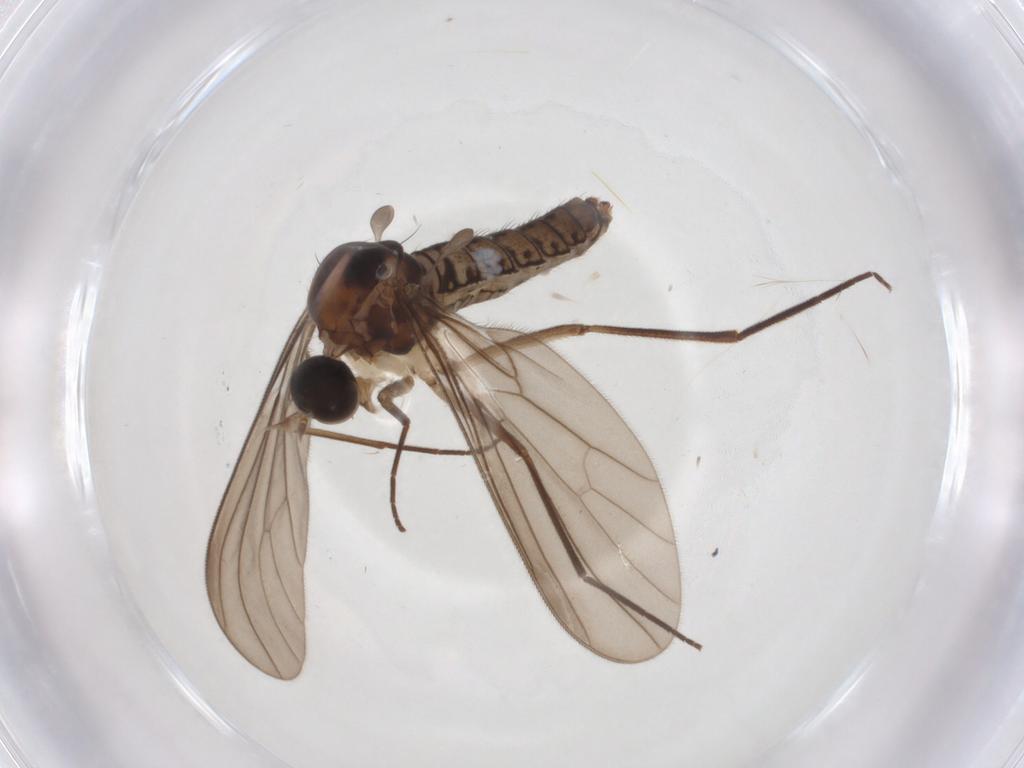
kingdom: Animalia
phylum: Arthropoda
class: Insecta
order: Diptera
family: Empididae
